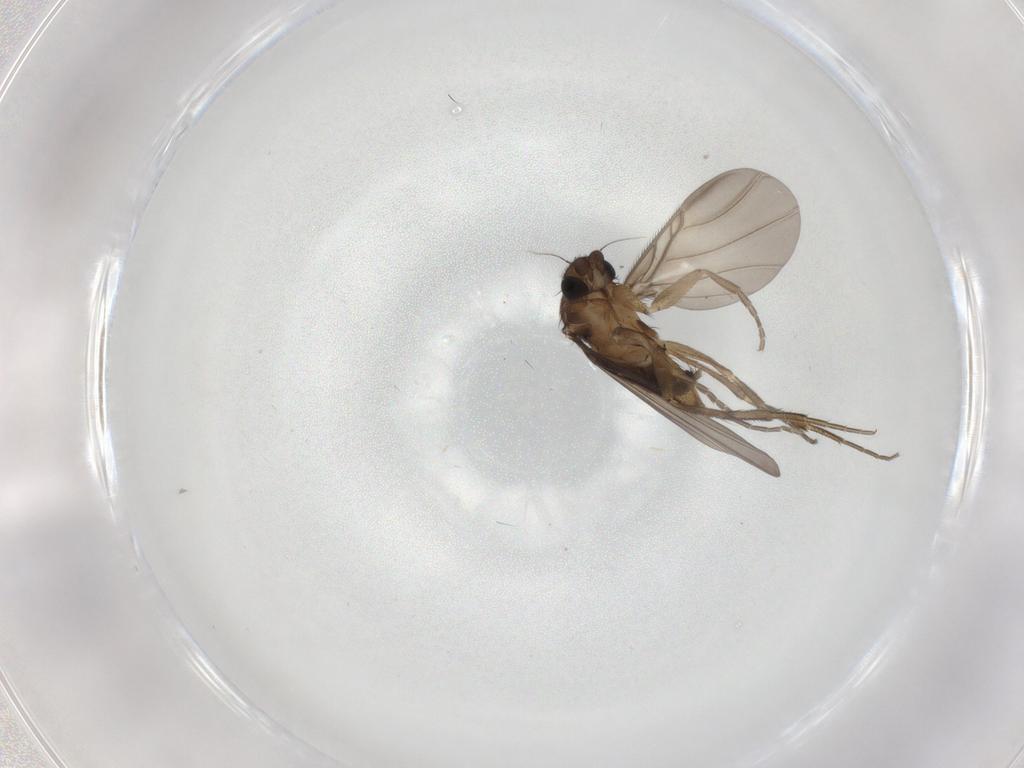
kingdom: Animalia
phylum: Arthropoda
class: Insecta
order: Diptera
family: Phoridae
